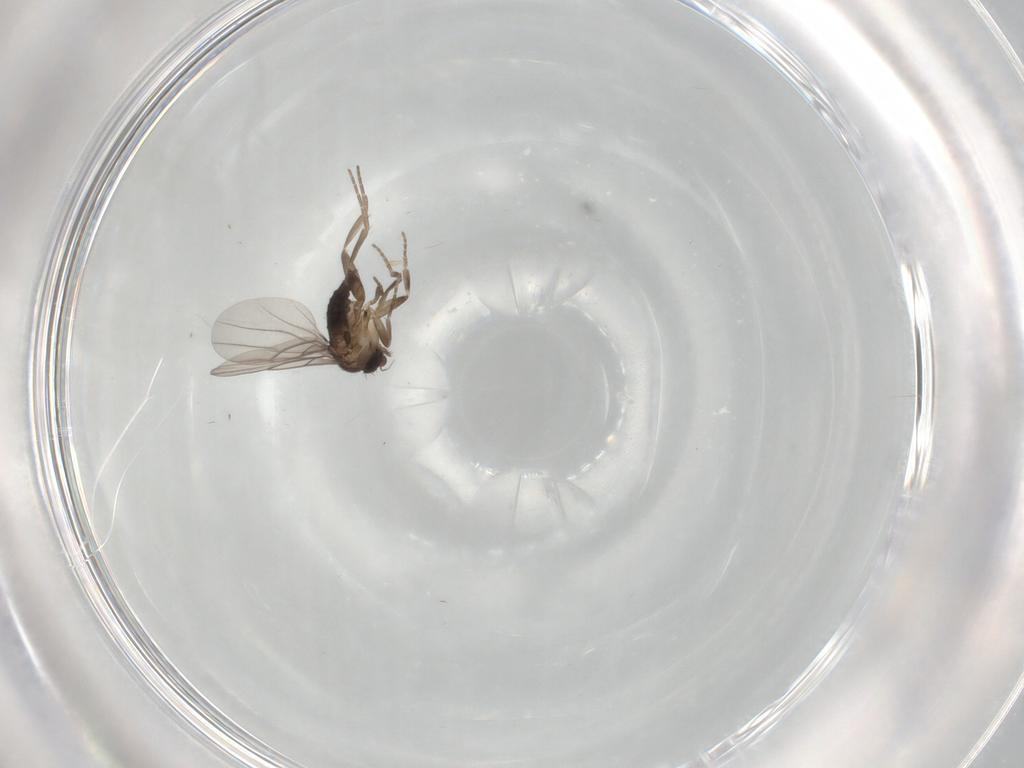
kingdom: Animalia
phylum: Arthropoda
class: Insecta
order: Diptera
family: Phoridae
